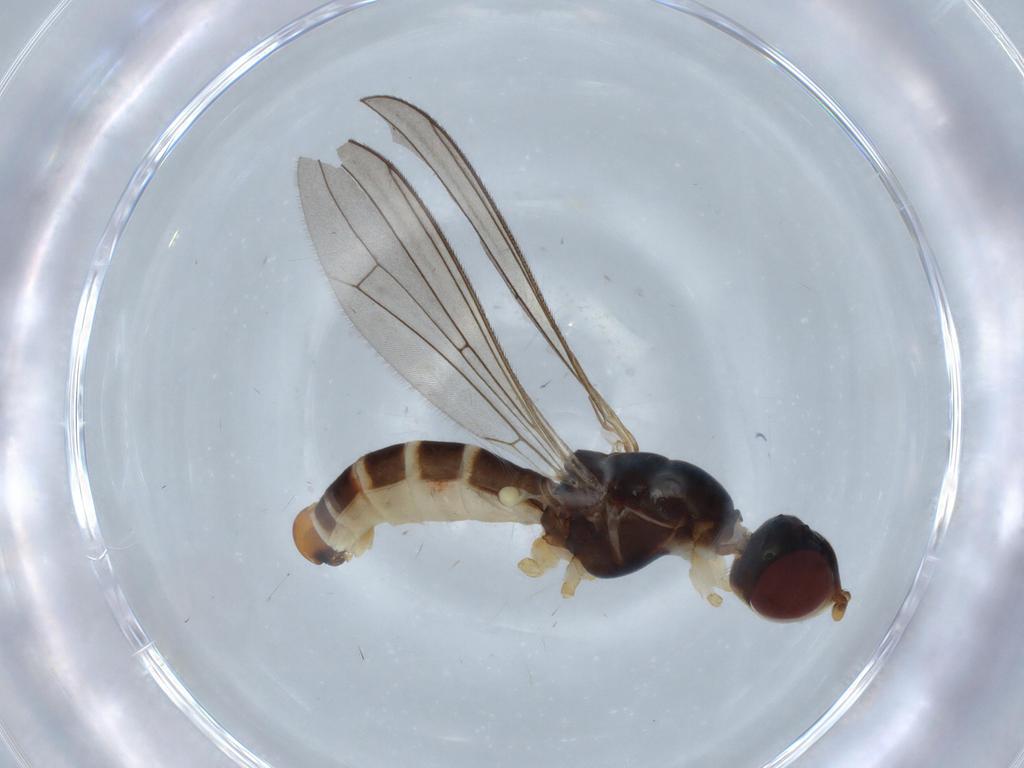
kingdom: Animalia
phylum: Arthropoda
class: Insecta
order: Diptera
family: Micropezidae
